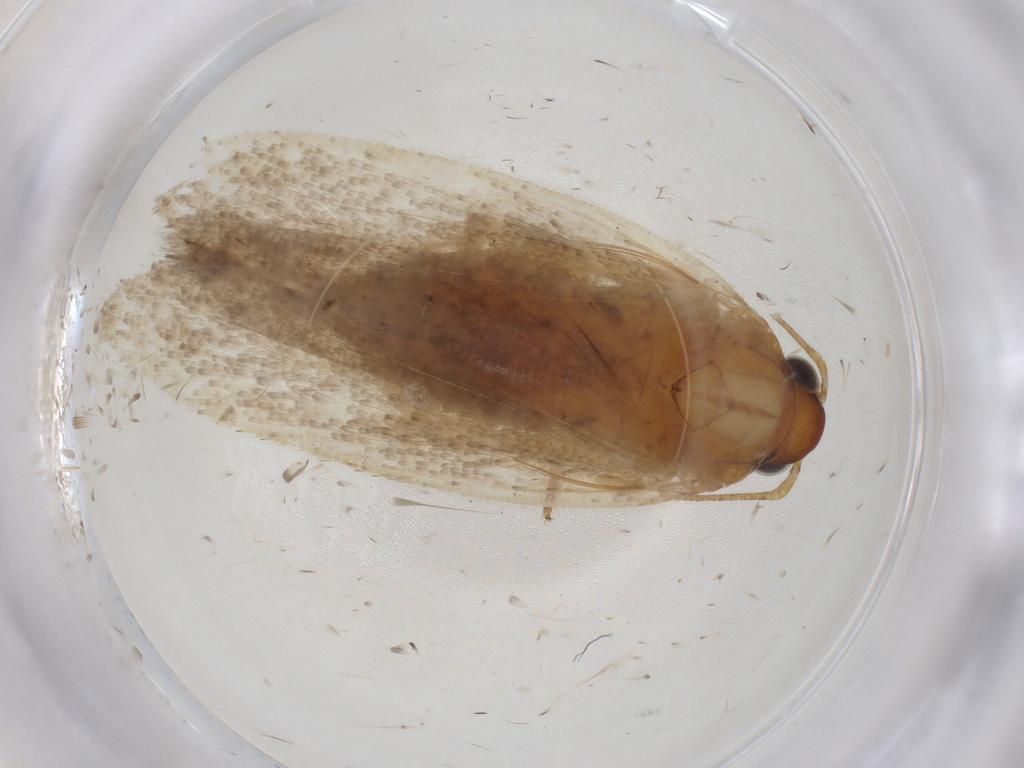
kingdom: Animalia
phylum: Arthropoda
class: Insecta
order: Lepidoptera
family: Gelechiidae
